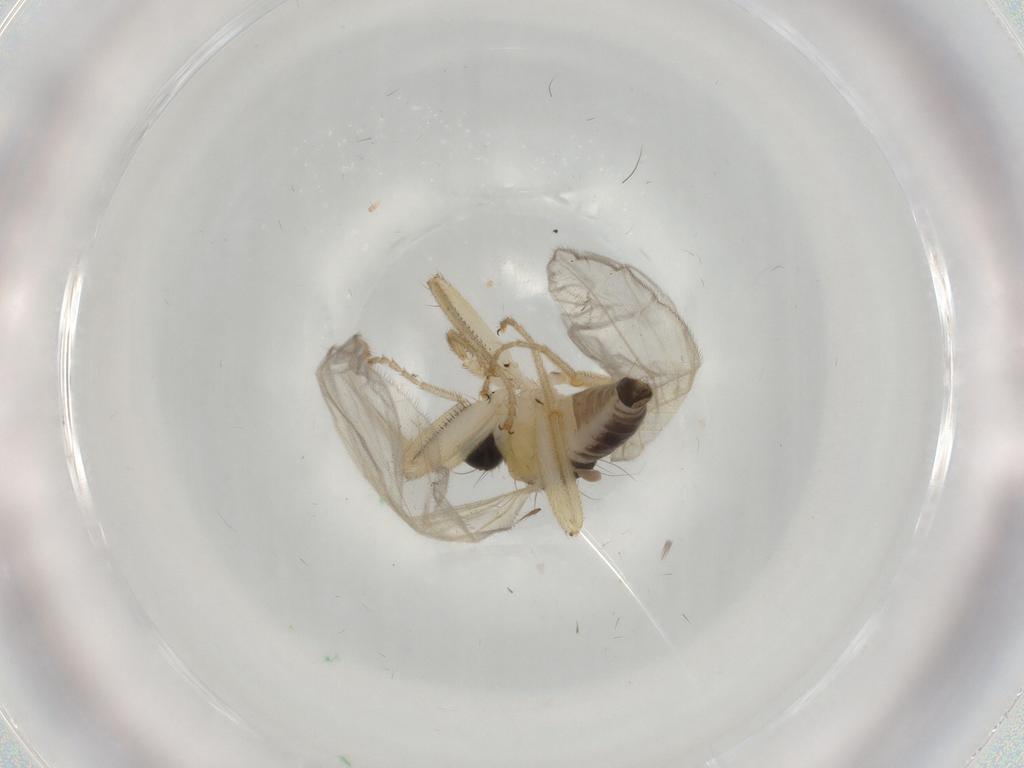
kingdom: Animalia
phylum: Arthropoda
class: Insecta
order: Diptera
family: Hybotidae
